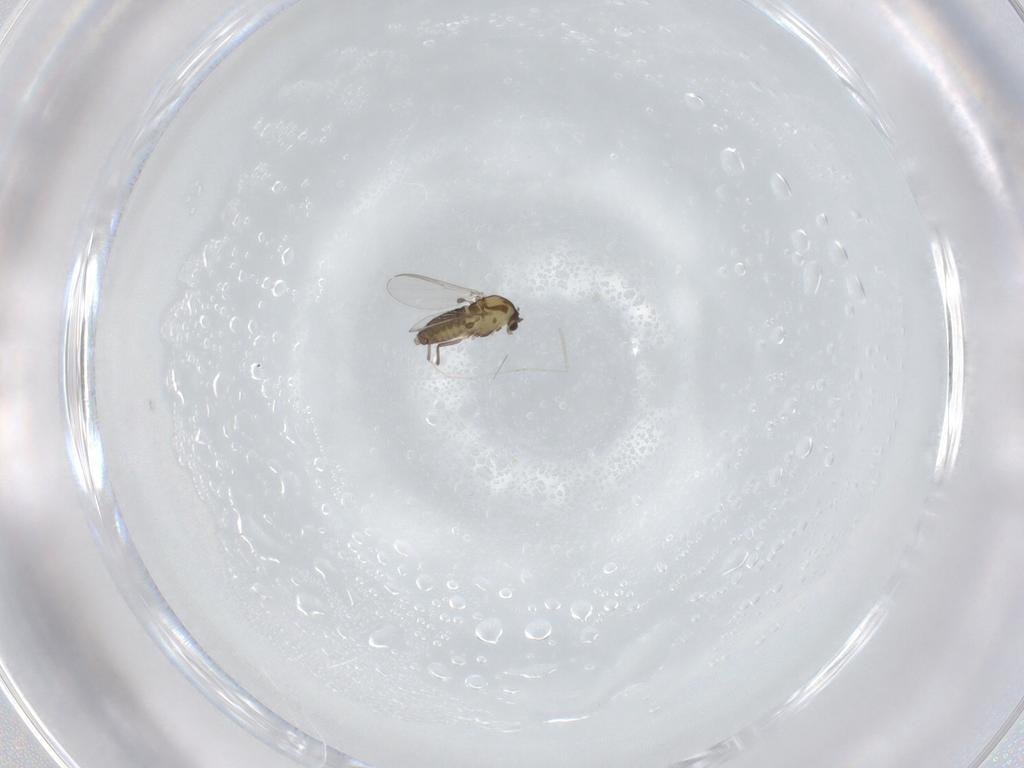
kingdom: Animalia
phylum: Arthropoda
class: Insecta
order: Diptera
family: Chironomidae
